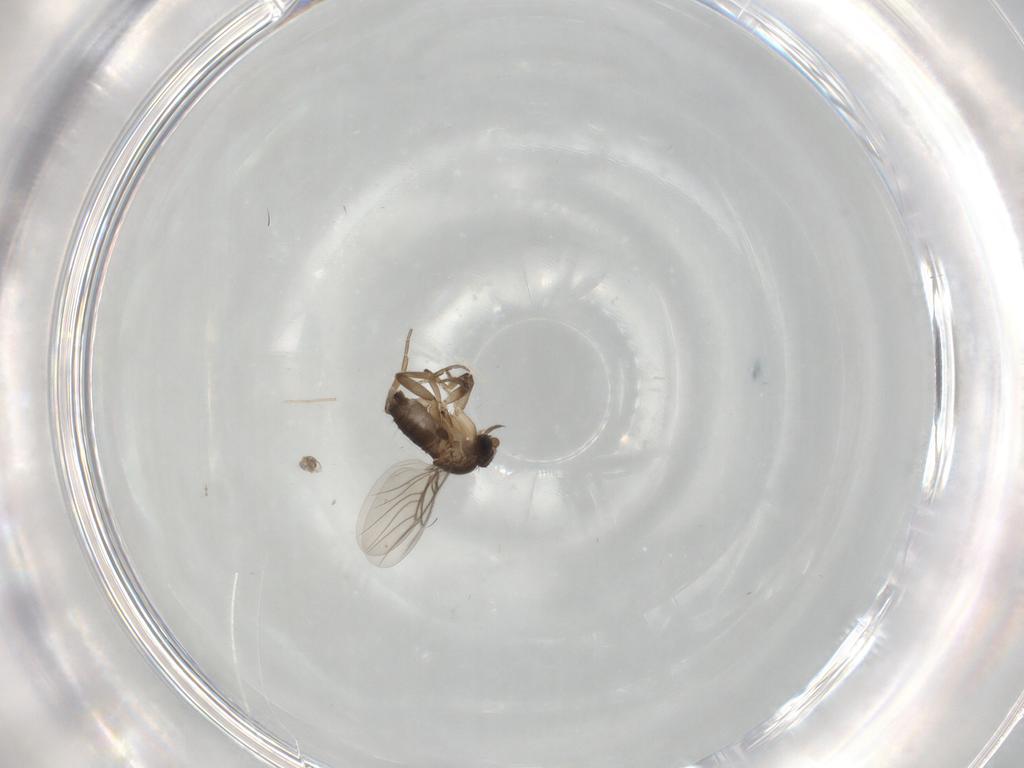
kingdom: Animalia
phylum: Arthropoda
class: Insecta
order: Diptera
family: Phoridae
